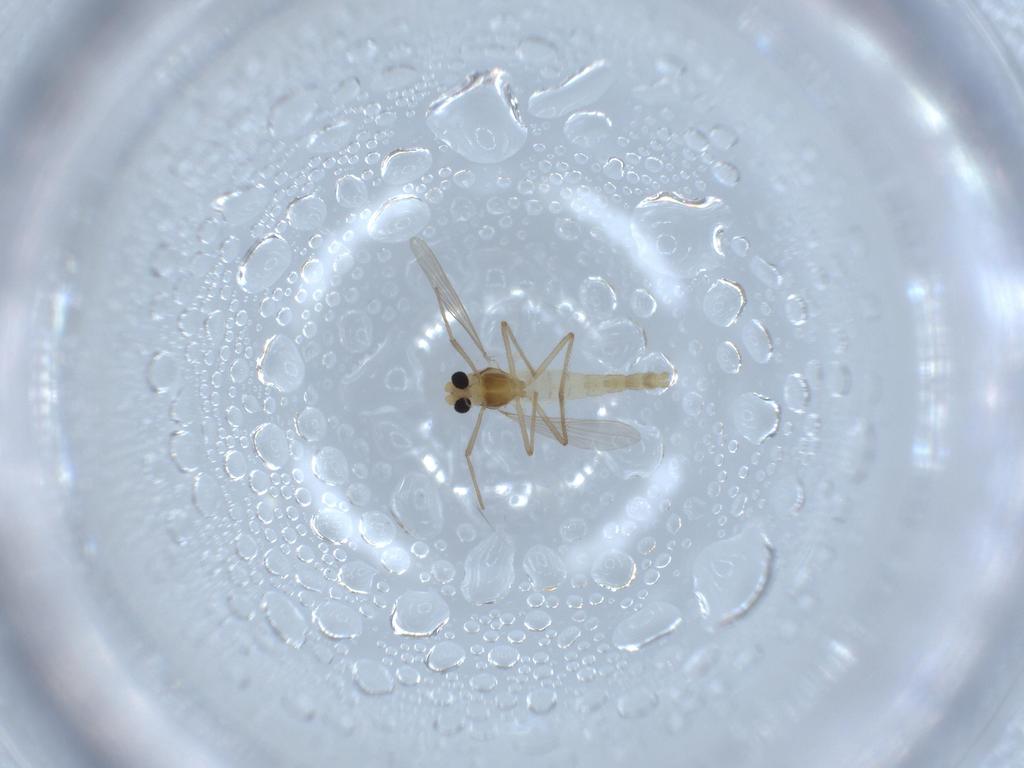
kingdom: Animalia
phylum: Arthropoda
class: Insecta
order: Diptera
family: Chironomidae
